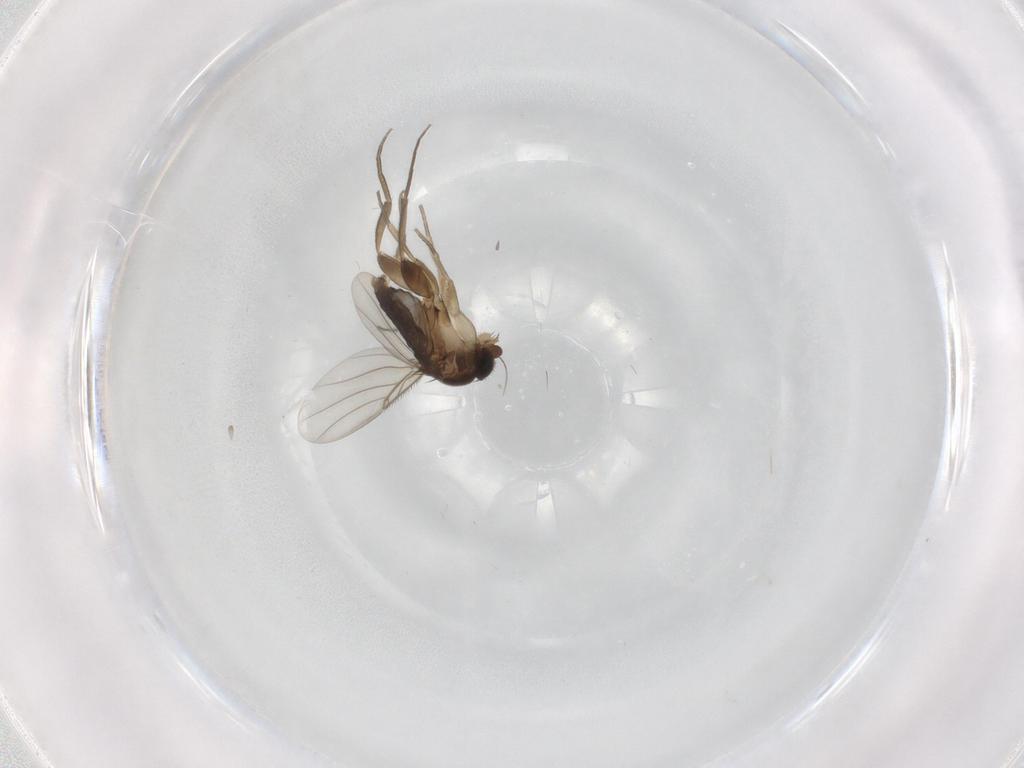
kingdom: Animalia
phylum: Arthropoda
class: Insecta
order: Diptera
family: Phoridae
